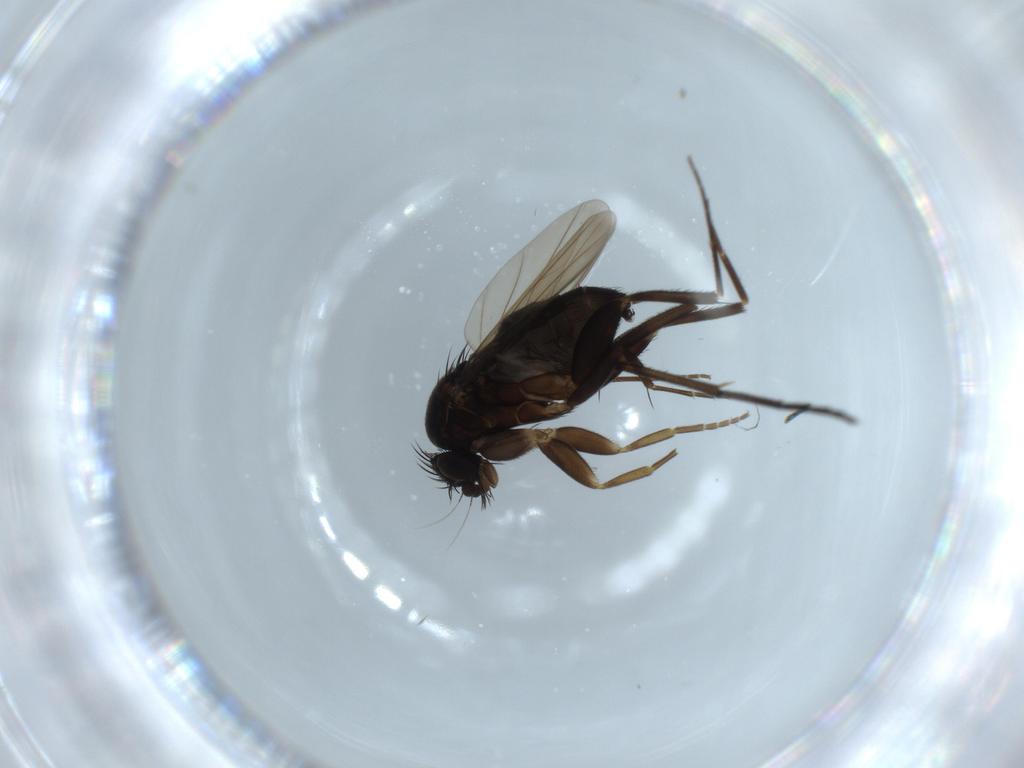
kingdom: Animalia
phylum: Arthropoda
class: Insecta
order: Diptera
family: Phoridae
